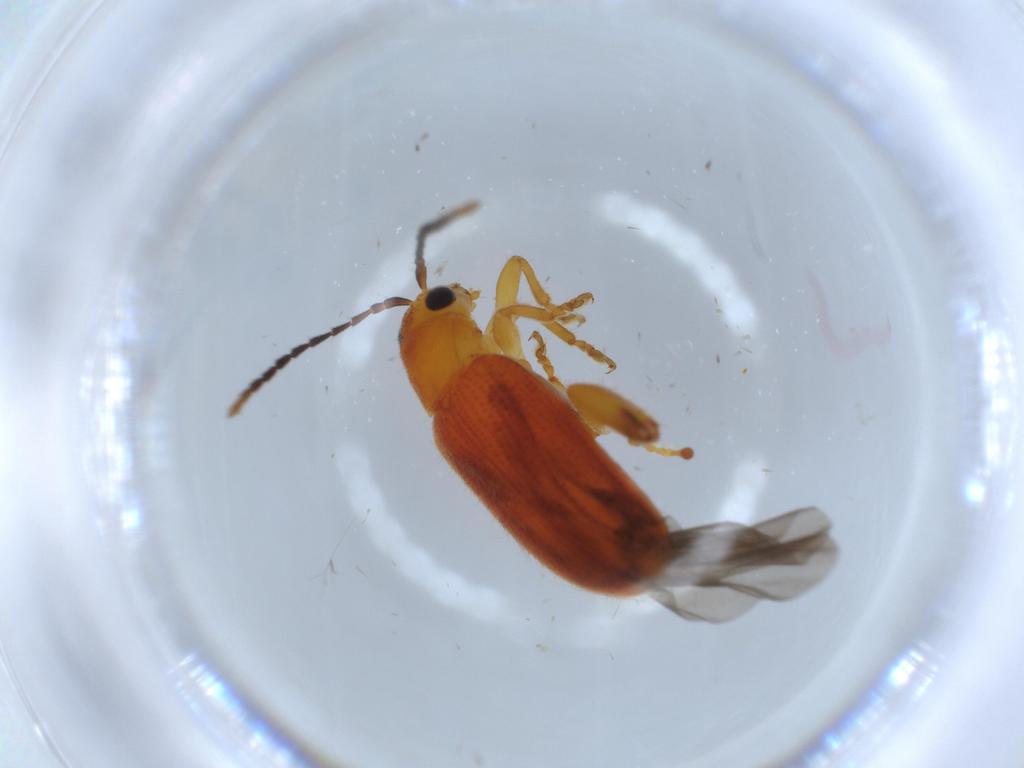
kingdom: Animalia
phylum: Arthropoda
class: Insecta
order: Coleoptera
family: Chrysomelidae
